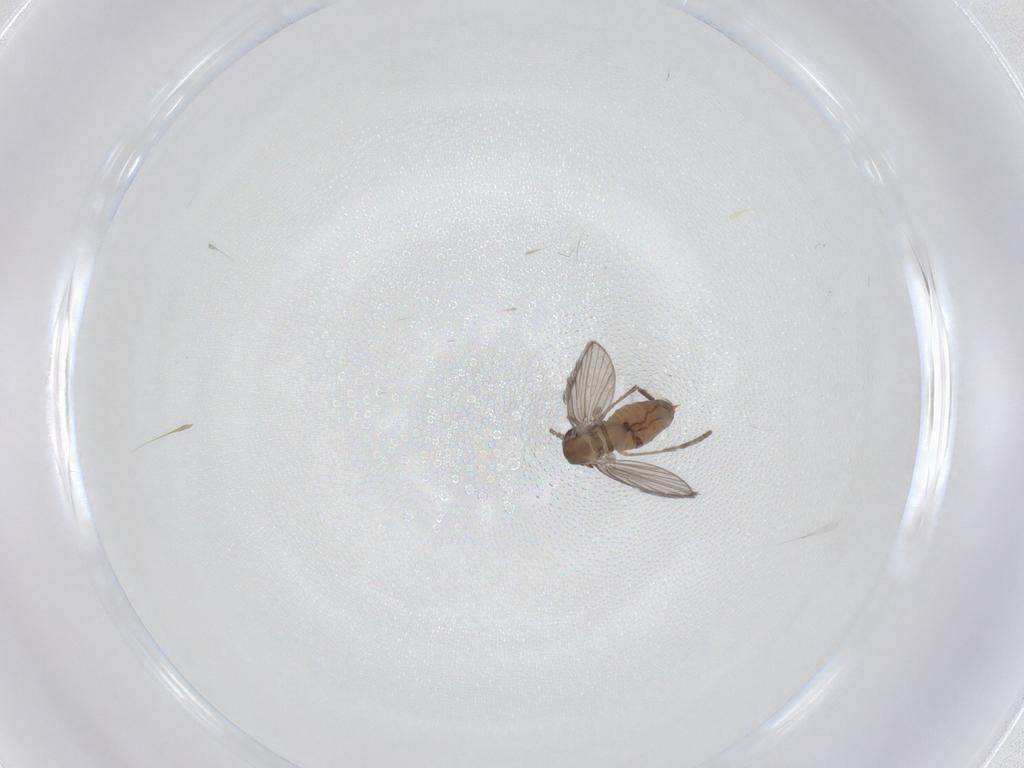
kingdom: Animalia
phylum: Arthropoda
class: Insecta
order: Diptera
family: Psychodidae
